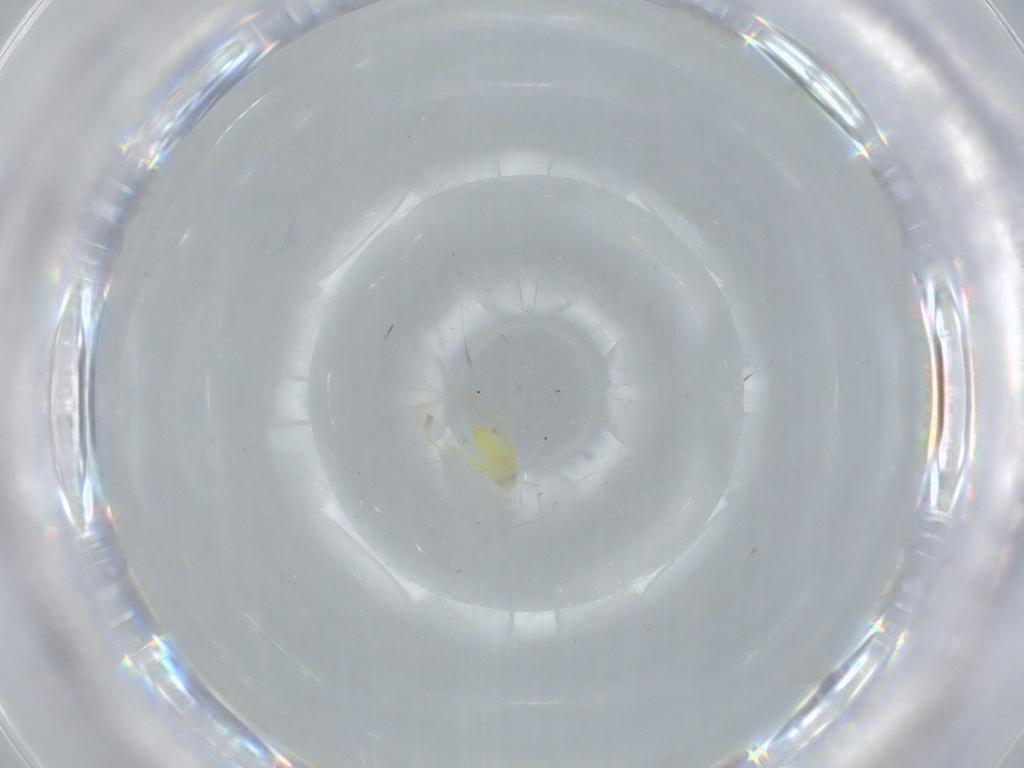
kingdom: Animalia
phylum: Arthropoda
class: Insecta
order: Hemiptera
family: Aleyrodidae
